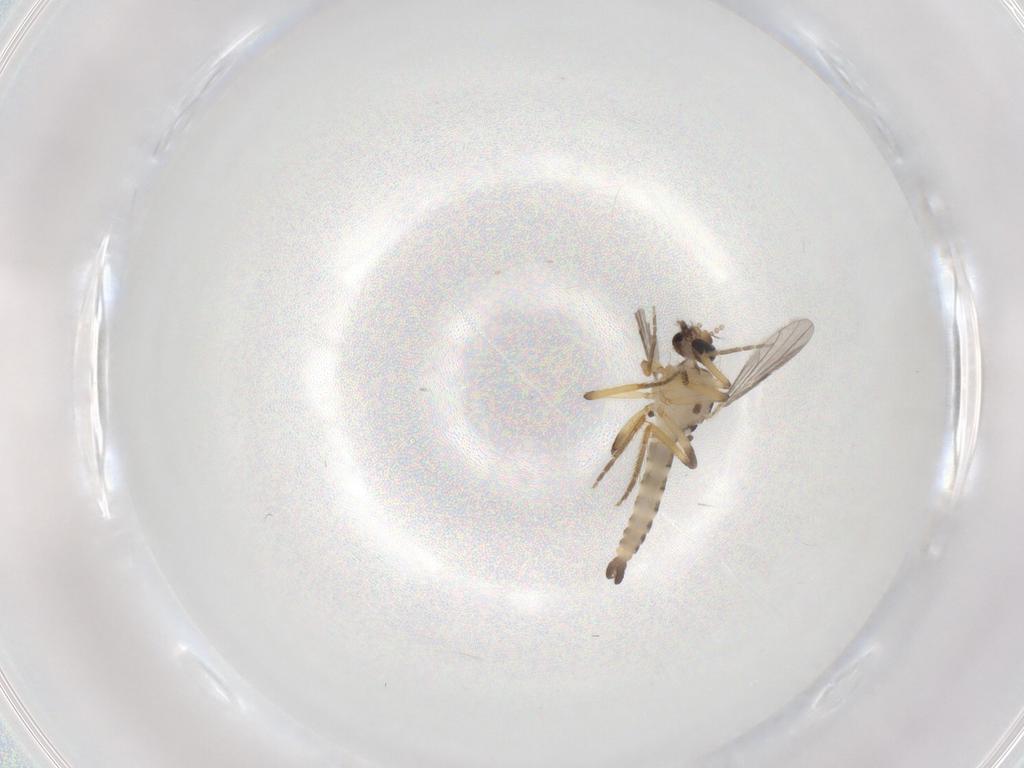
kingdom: Animalia
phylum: Arthropoda
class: Insecta
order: Diptera
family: Ceratopogonidae
